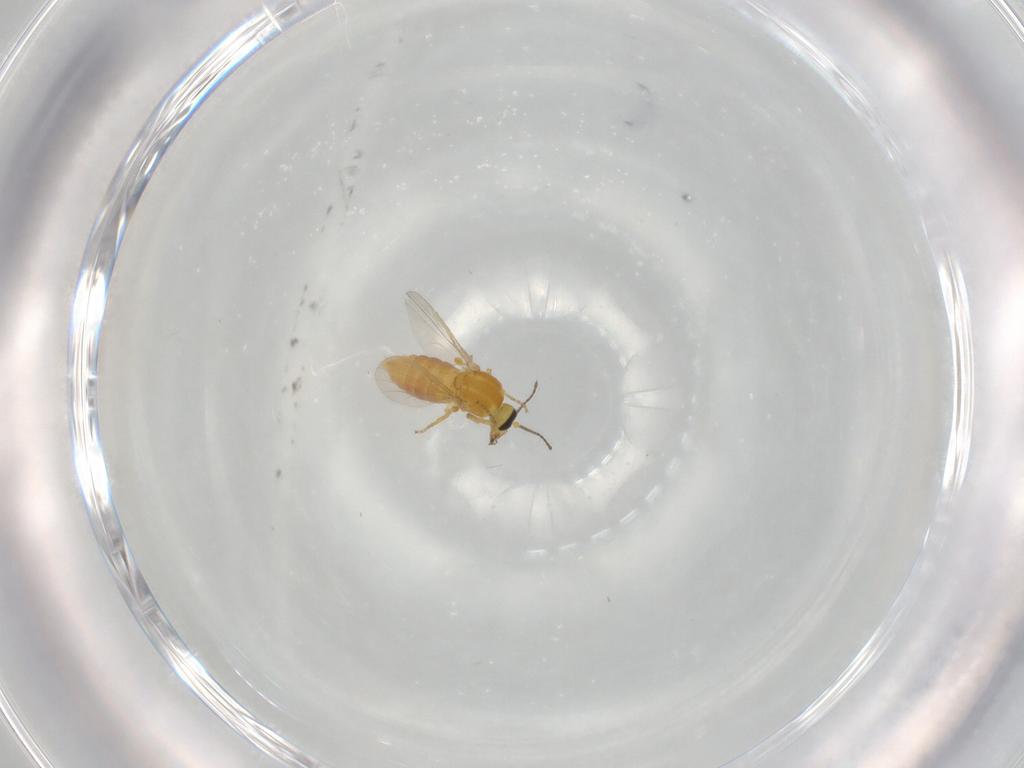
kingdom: Animalia
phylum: Arthropoda
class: Insecta
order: Diptera
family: Ceratopogonidae
